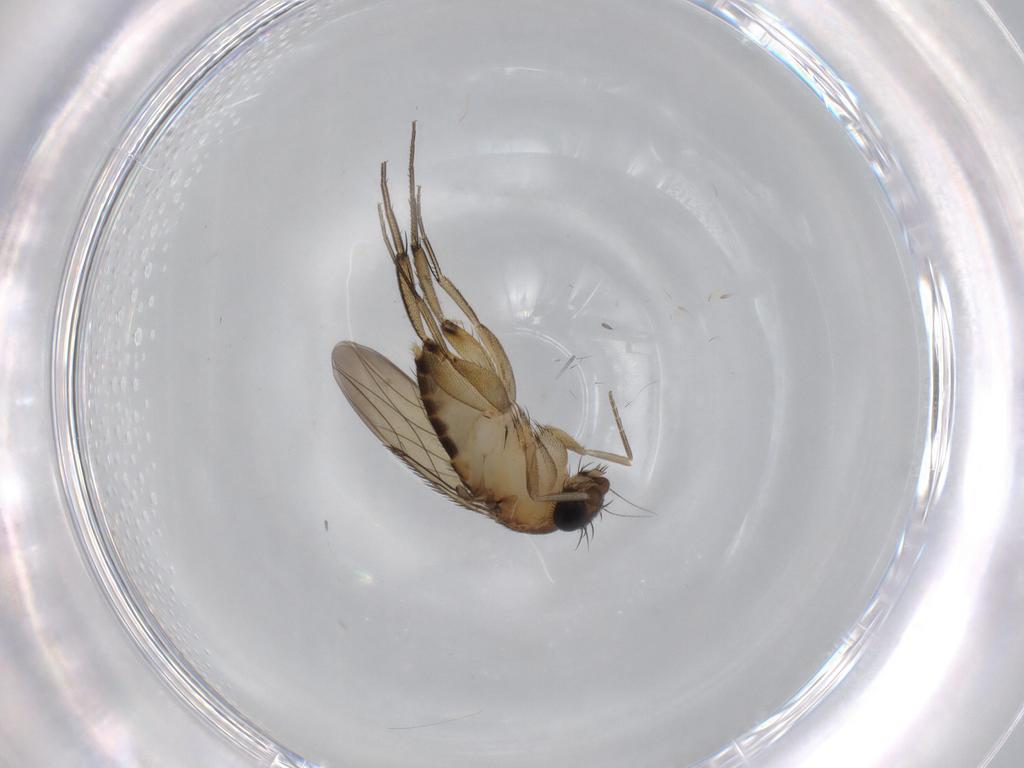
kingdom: Animalia
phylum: Arthropoda
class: Insecta
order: Diptera
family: Phoridae
